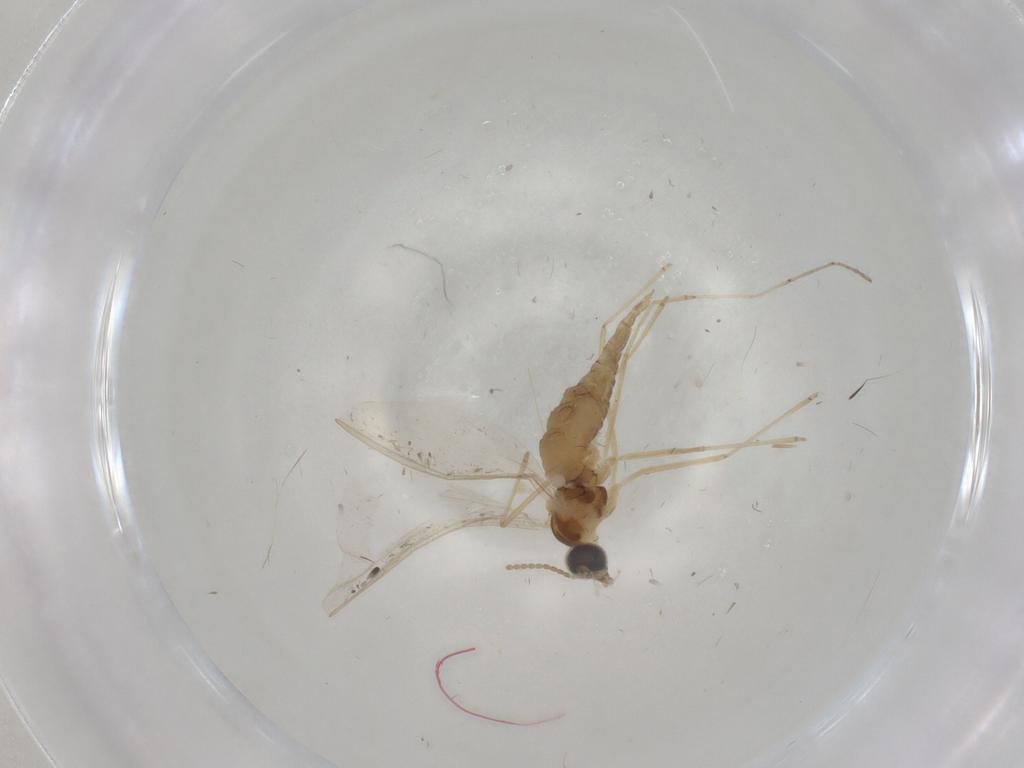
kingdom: Animalia
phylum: Arthropoda
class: Insecta
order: Diptera
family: Cecidomyiidae
